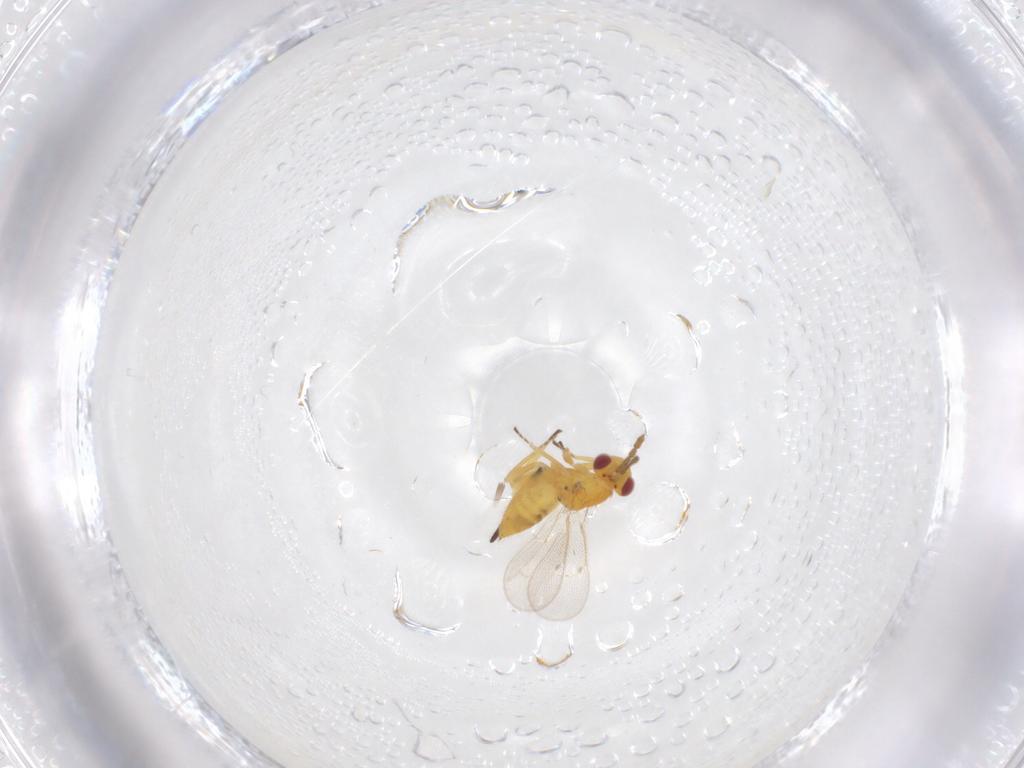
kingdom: Animalia
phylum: Arthropoda
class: Insecta
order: Hymenoptera
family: Eulophidae
